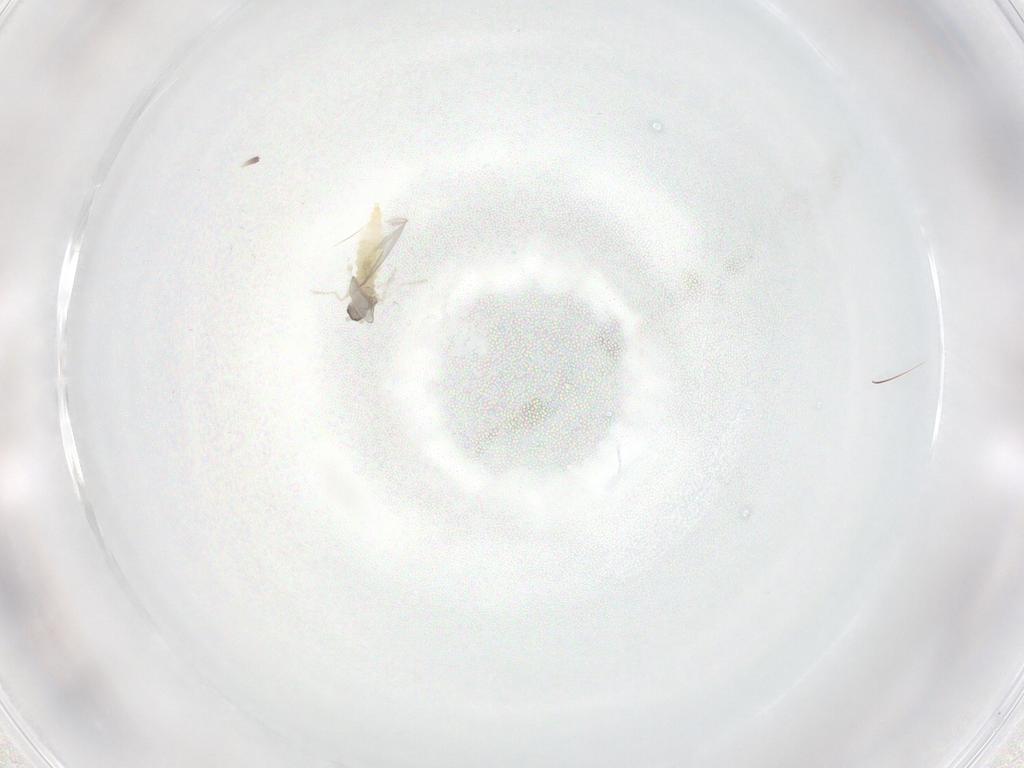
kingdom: Animalia
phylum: Arthropoda
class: Insecta
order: Diptera
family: Cecidomyiidae
